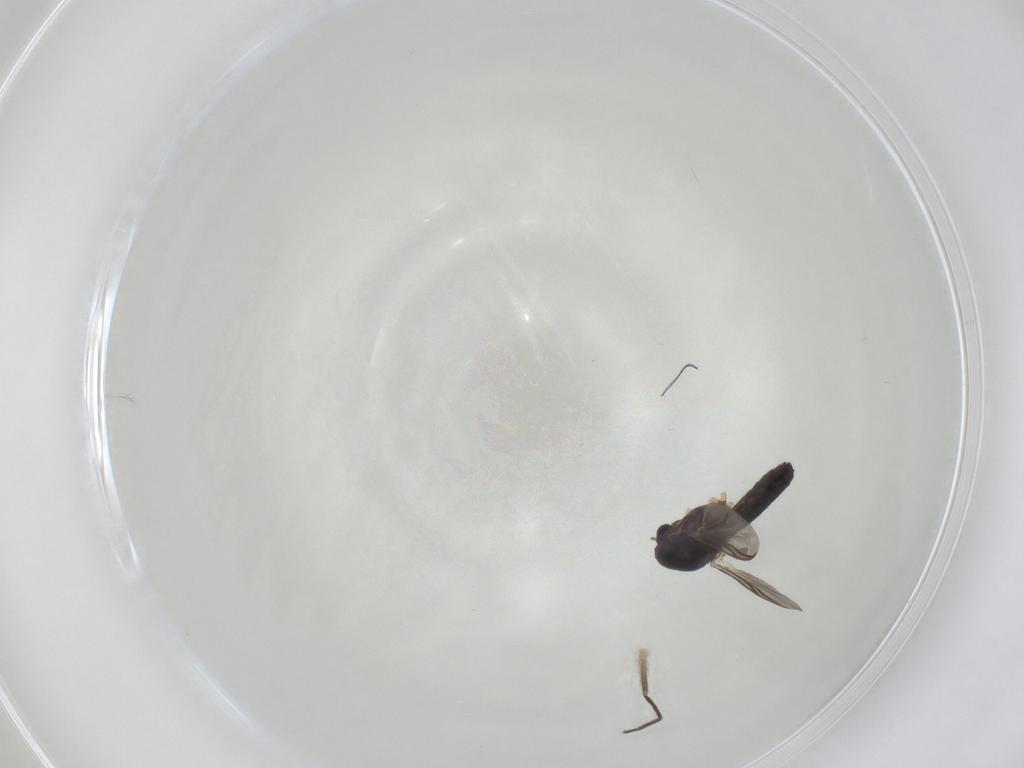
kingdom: Animalia
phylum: Arthropoda
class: Insecta
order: Diptera
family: Chironomidae
